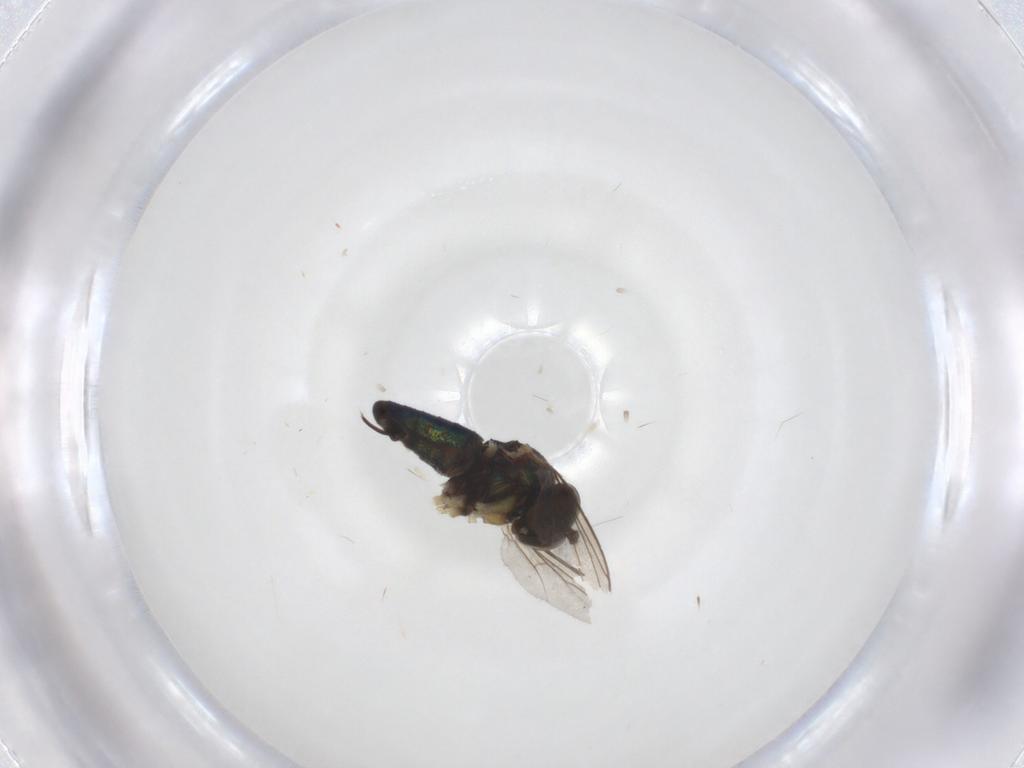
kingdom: Animalia
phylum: Arthropoda
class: Insecta
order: Diptera
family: Dolichopodidae
